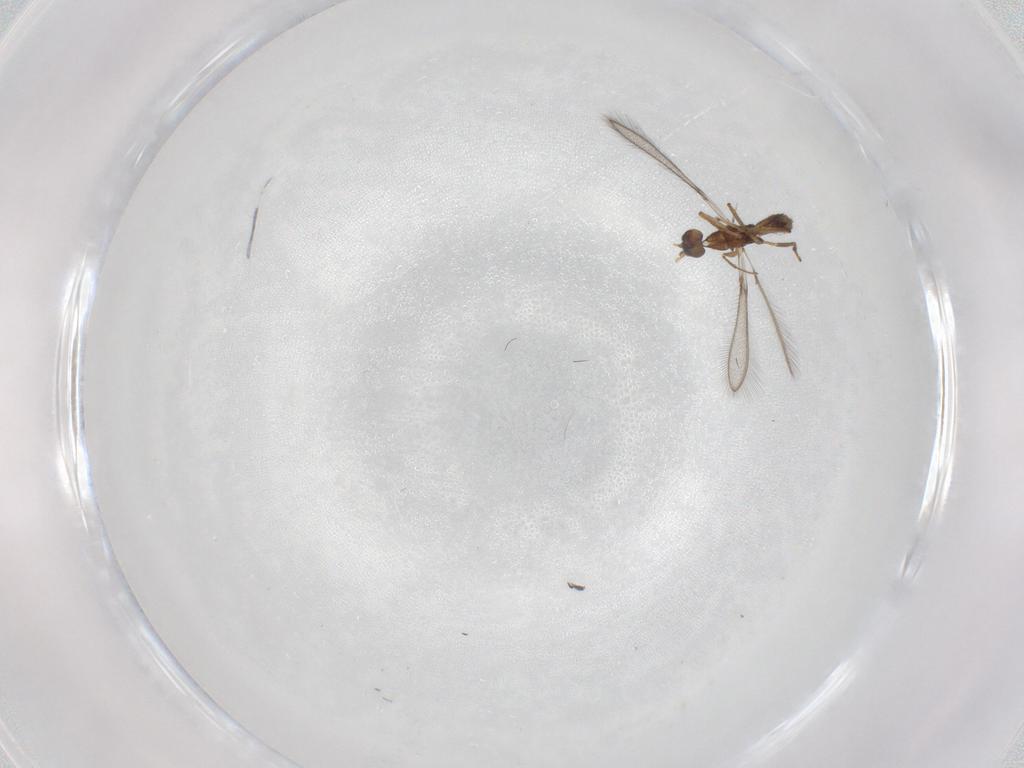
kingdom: Animalia
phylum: Arthropoda
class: Insecta
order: Hymenoptera
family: Mymaridae
